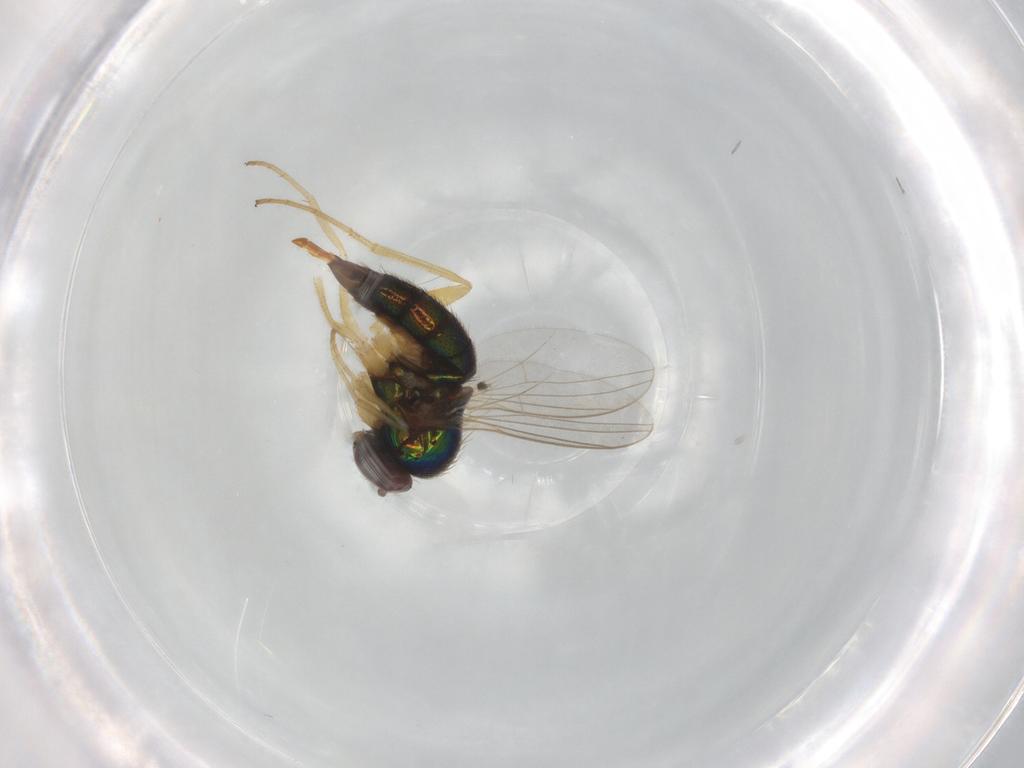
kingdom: Animalia
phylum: Arthropoda
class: Insecta
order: Diptera
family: Dolichopodidae
